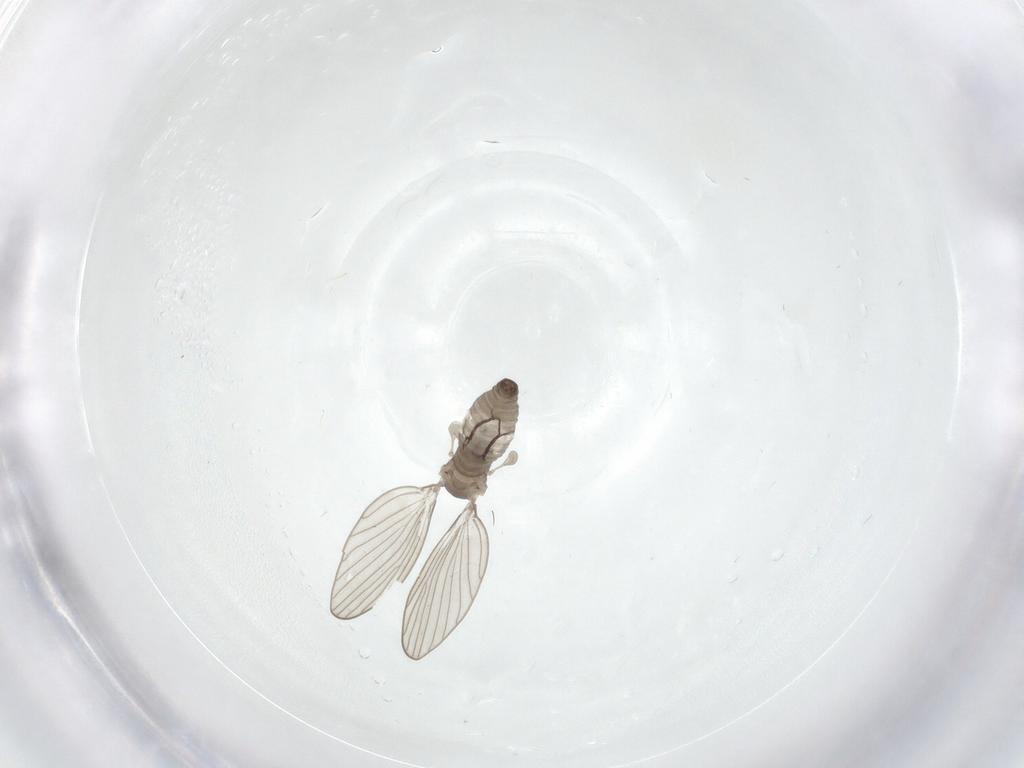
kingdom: Animalia
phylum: Arthropoda
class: Insecta
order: Diptera
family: Psychodidae
